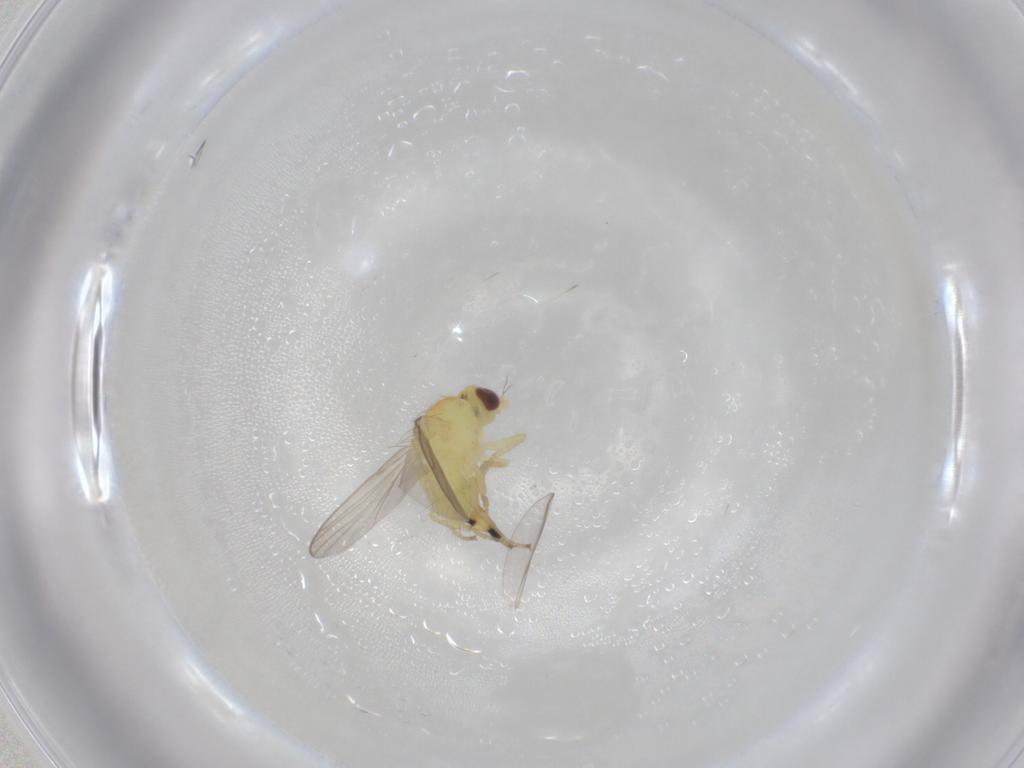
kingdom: Animalia
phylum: Arthropoda
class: Insecta
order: Diptera
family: Agromyzidae
